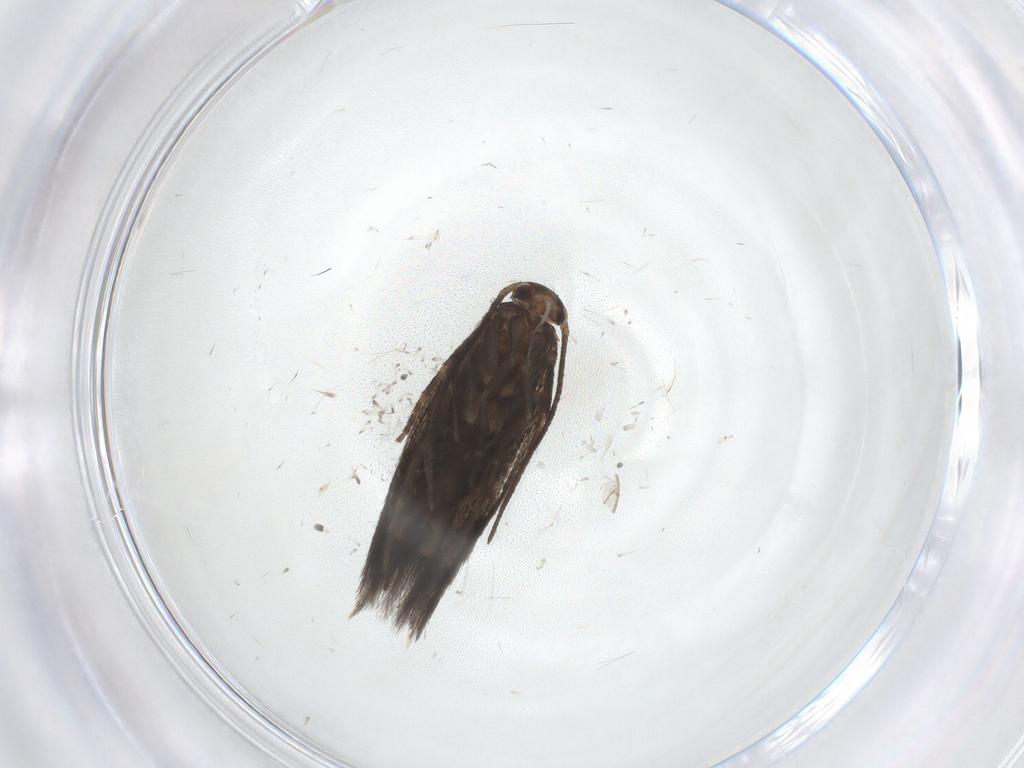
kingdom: Animalia
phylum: Arthropoda
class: Insecta
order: Lepidoptera
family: Elachistidae
